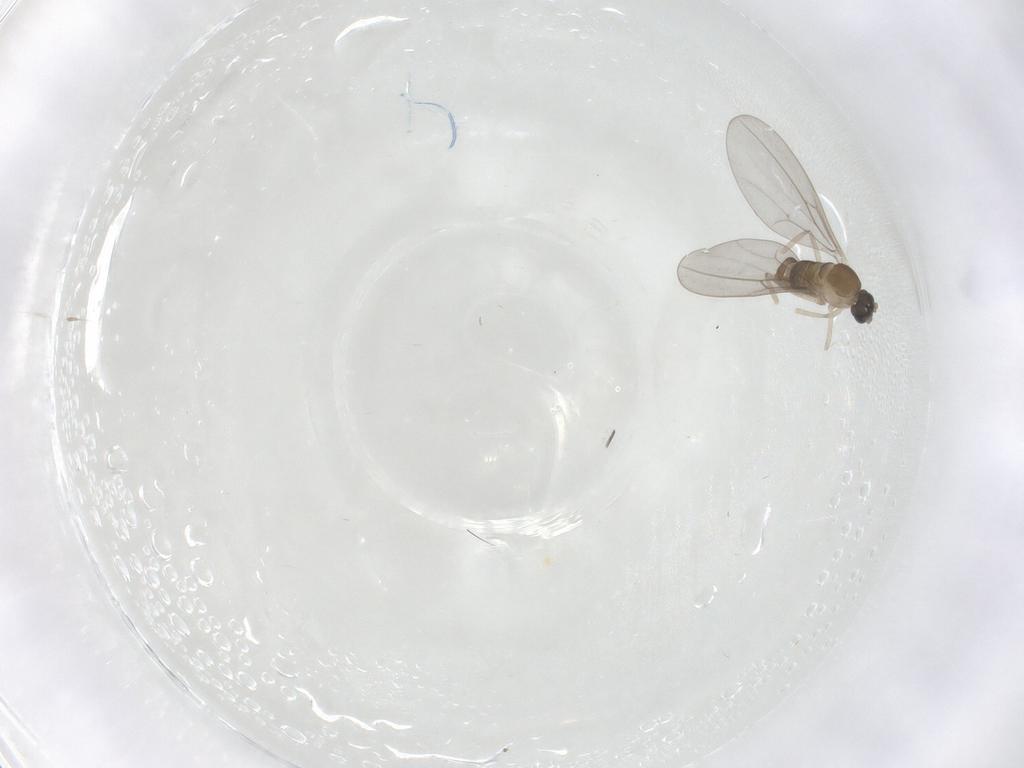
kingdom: Animalia
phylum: Arthropoda
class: Insecta
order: Diptera
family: Cecidomyiidae
